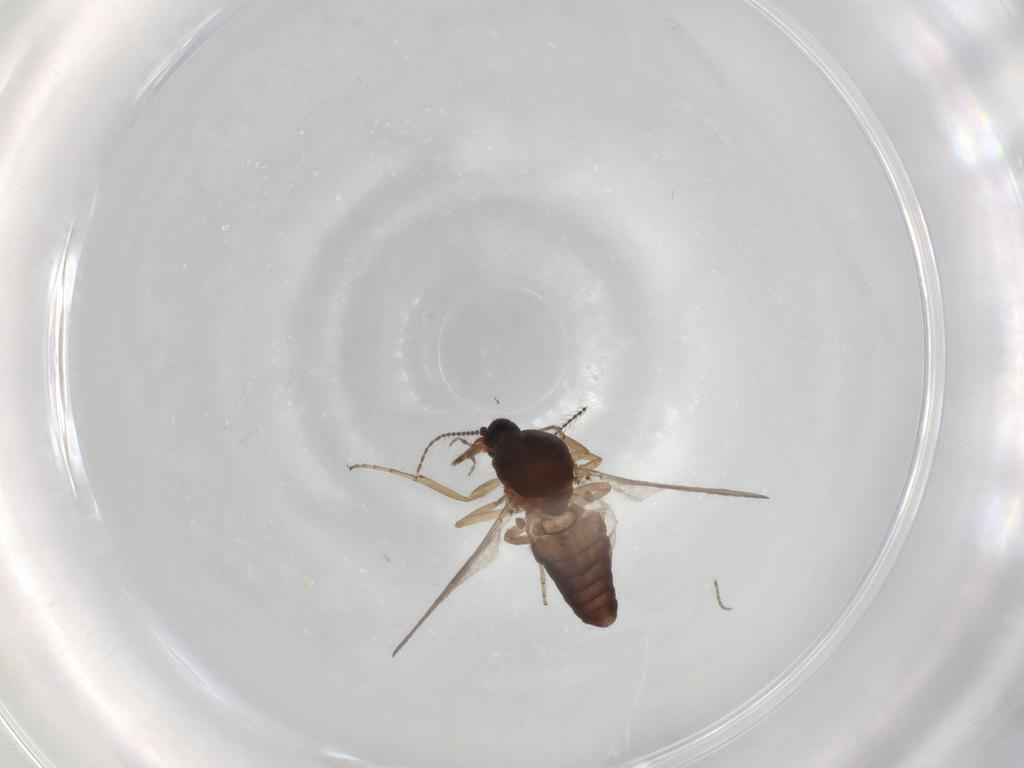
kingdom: Animalia
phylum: Arthropoda
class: Insecta
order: Diptera
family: Ceratopogonidae
